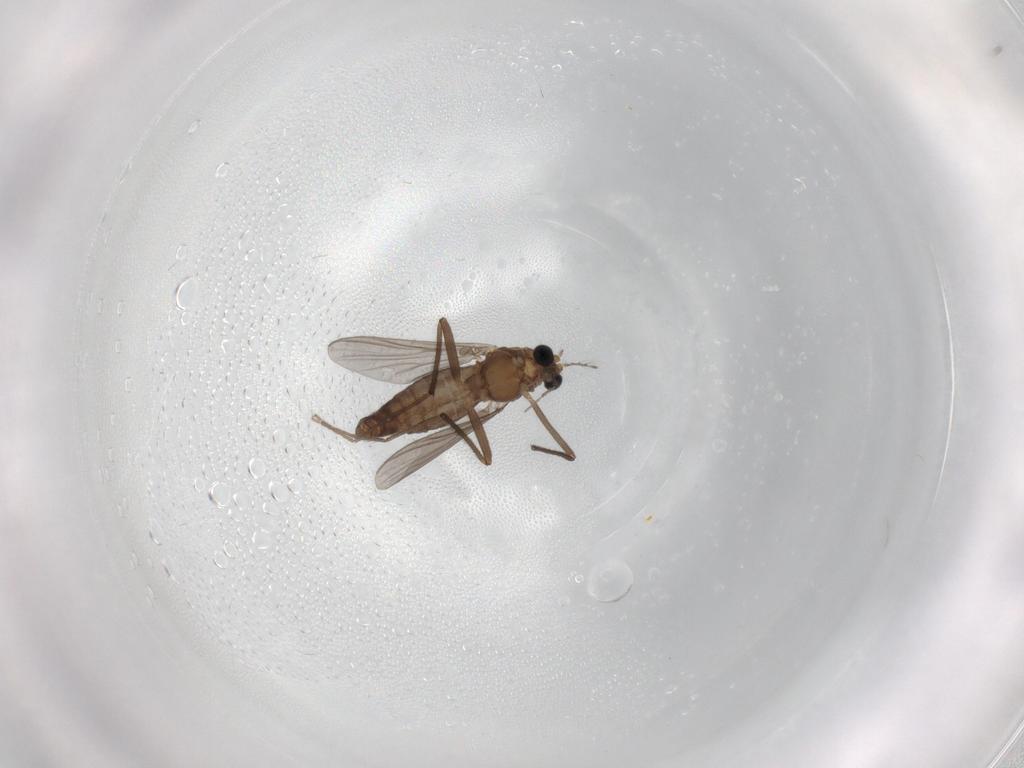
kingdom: Animalia
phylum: Arthropoda
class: Insecta
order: Diptera
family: Chironomidae
